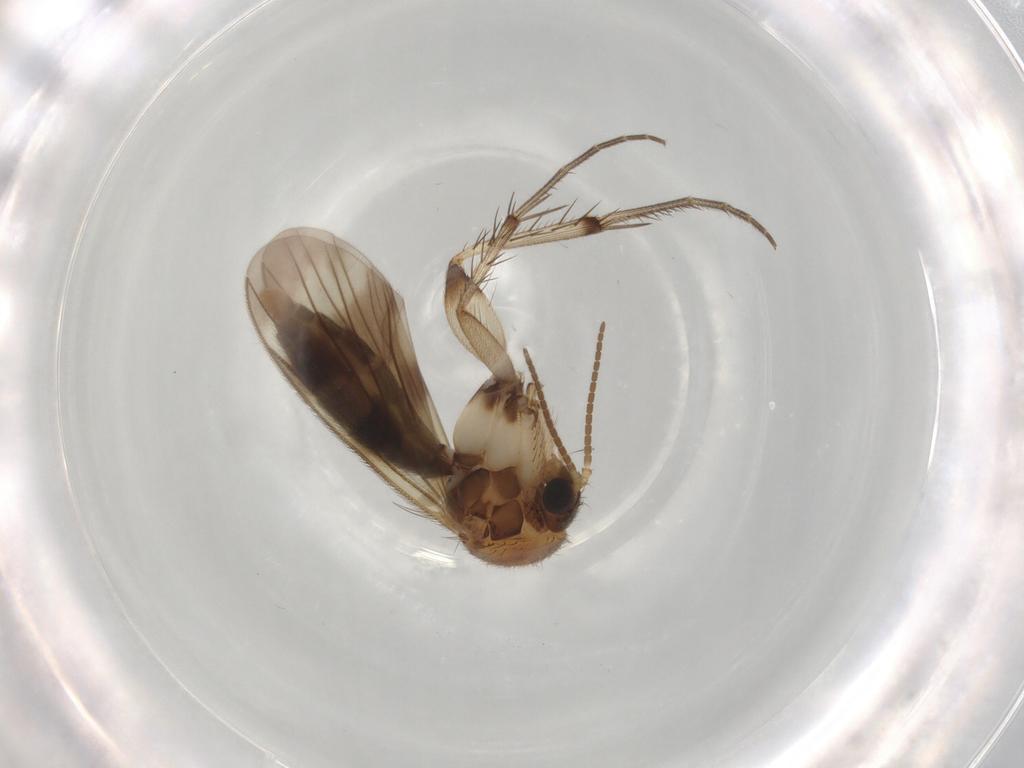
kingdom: Animalia
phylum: Arthropoda
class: Insecta
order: Diptera
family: Mycetophilidae
